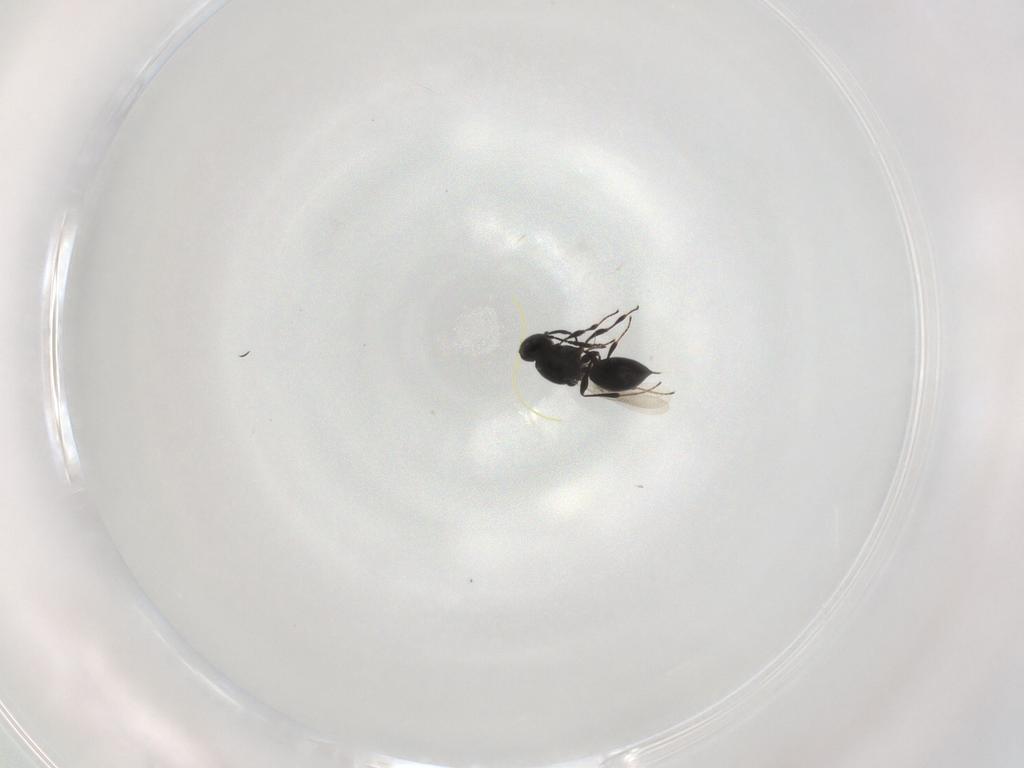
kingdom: Animalia
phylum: Arthropoda
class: Insecta
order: Hymenoptera
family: Platygastridae
